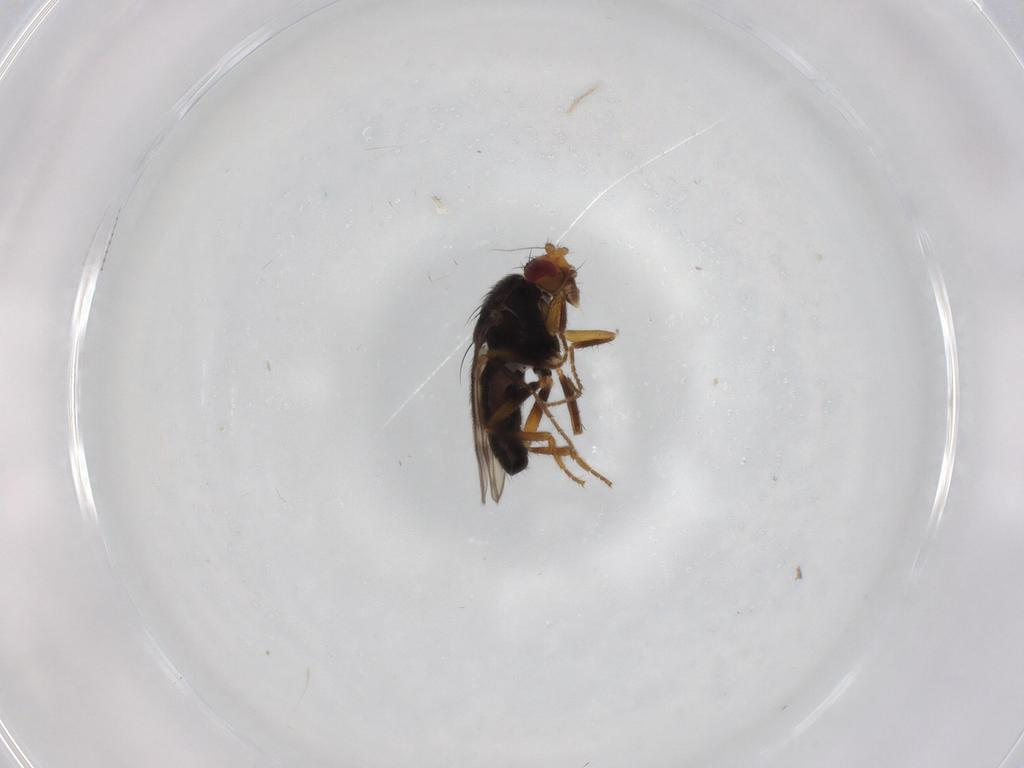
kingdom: Animalia
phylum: Arthropoda
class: Insecta
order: Diptera
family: Sphaeroceridae
